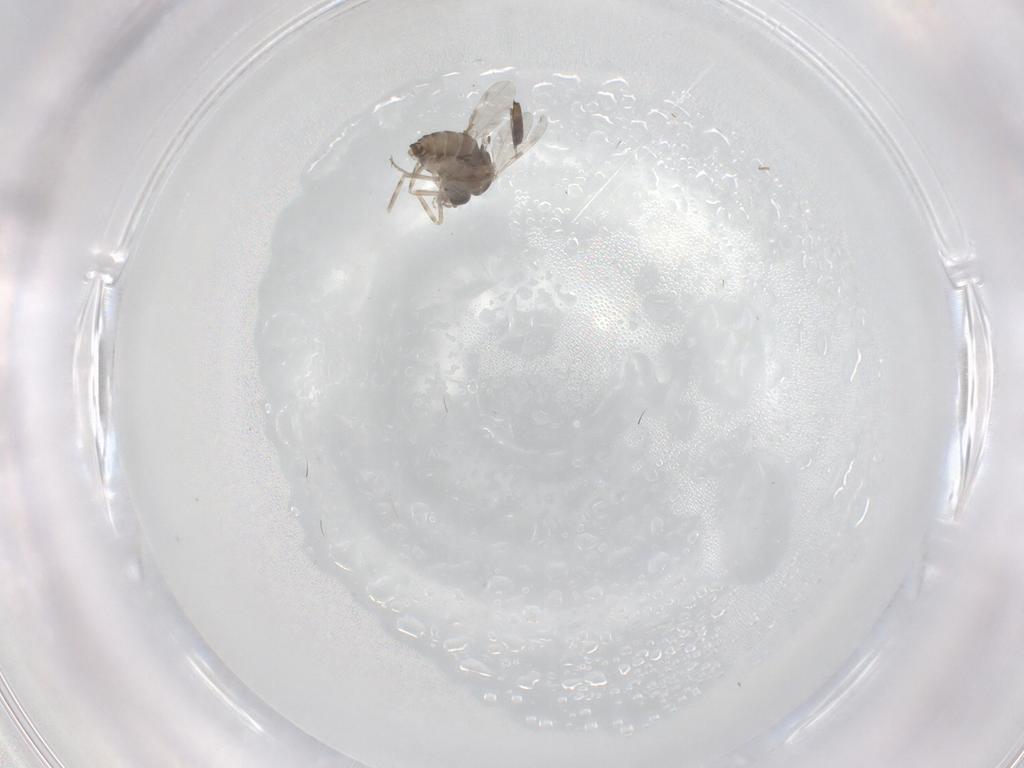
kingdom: Animalia
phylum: Arthropoda
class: Insecta
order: Diptera
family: Ceratopogonidae
